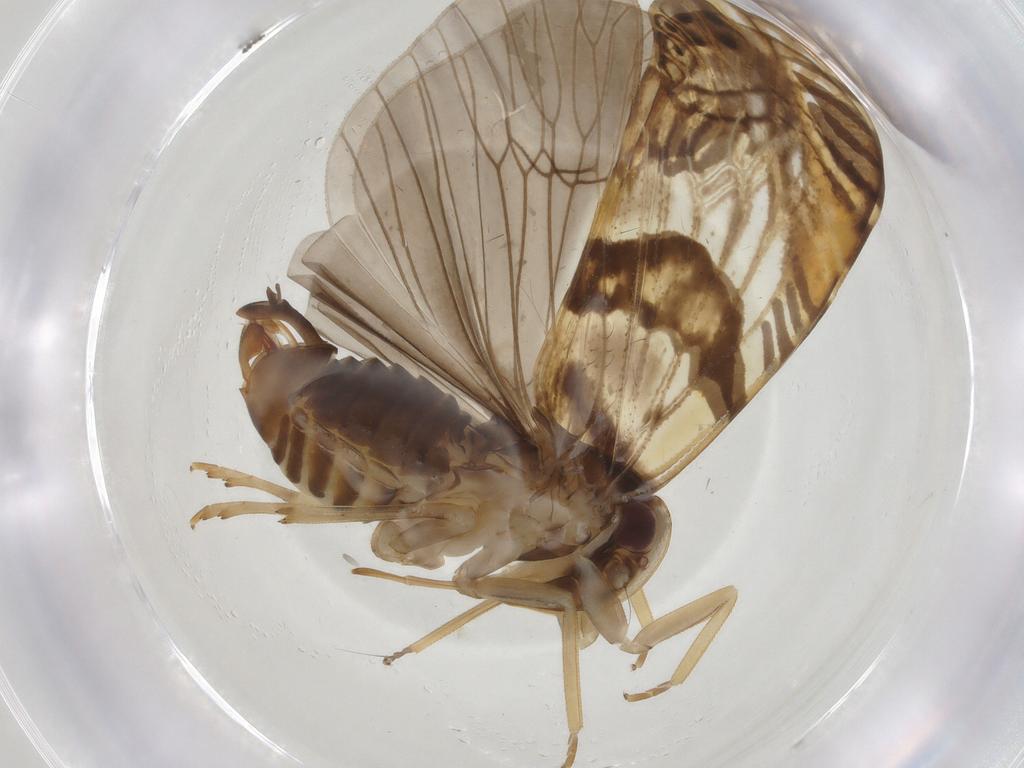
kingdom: Animalia
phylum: Arthropoda
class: Insecta
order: Hemiptera
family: Cixiidae
